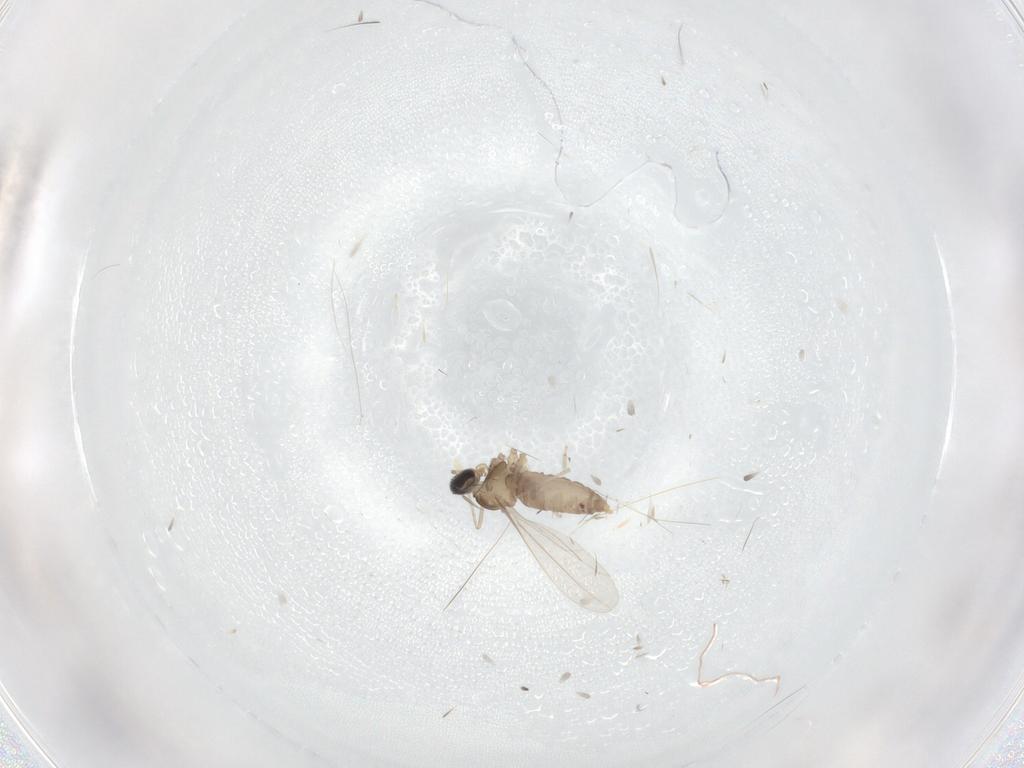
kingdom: Animalia
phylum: Arthropoda
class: Insecta
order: Diptera
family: Cecidomyiidae
